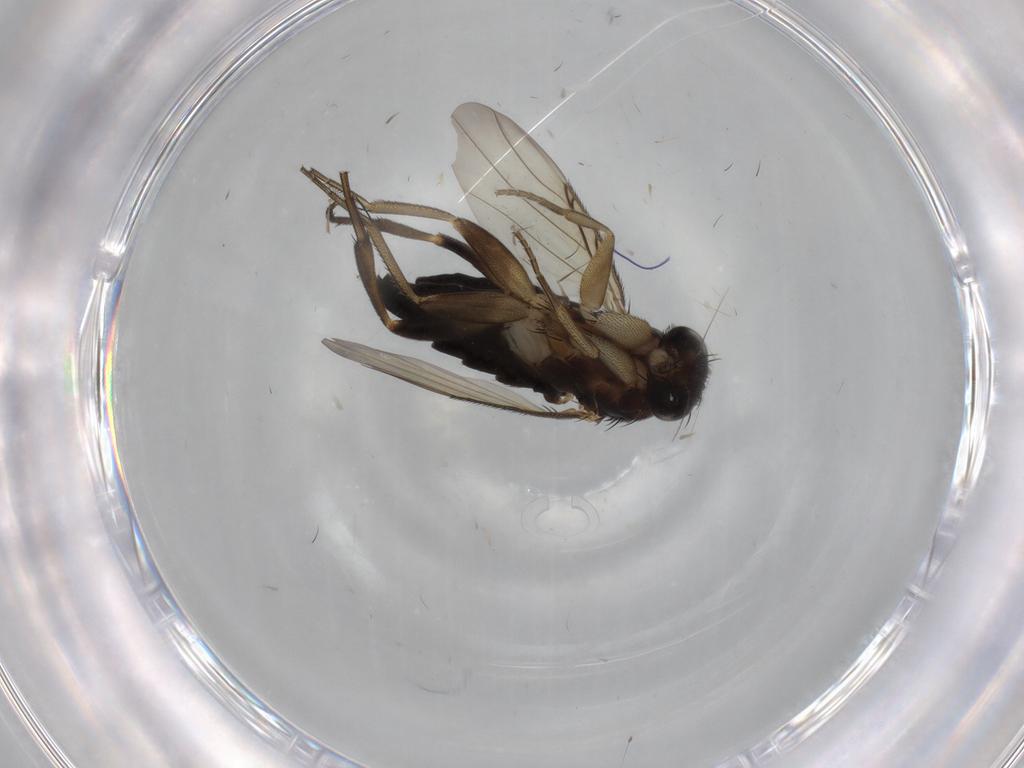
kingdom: Animalia
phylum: Arthropoda
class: Insecta
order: Diptera
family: Phoridae
